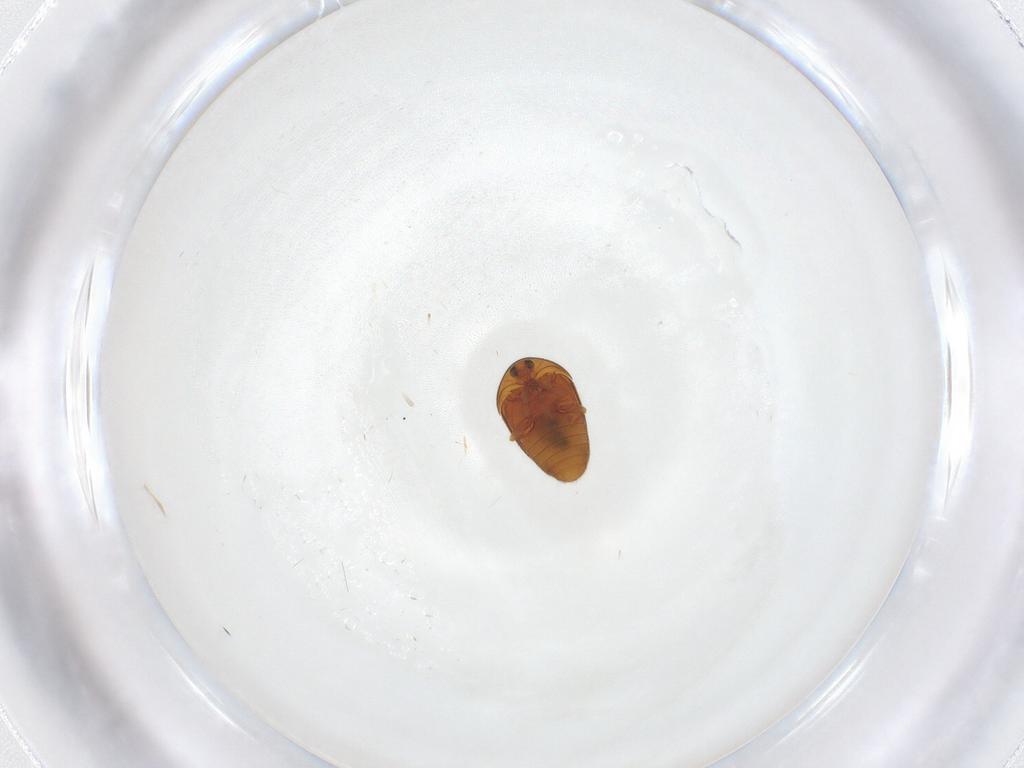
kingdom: Animalia
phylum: Arthropoda
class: Insecta
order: Coleoptera
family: Corylophidae
